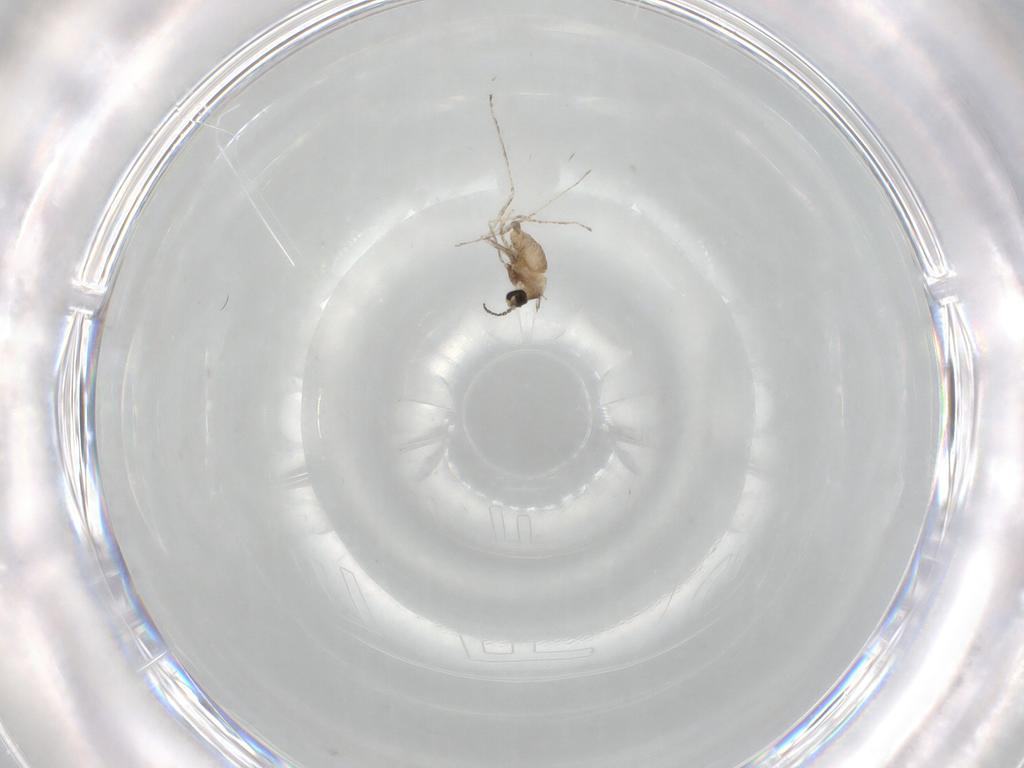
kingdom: Animalia
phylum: Arthropoda
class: Insecta
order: Diptera
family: Cecidomyiidae
